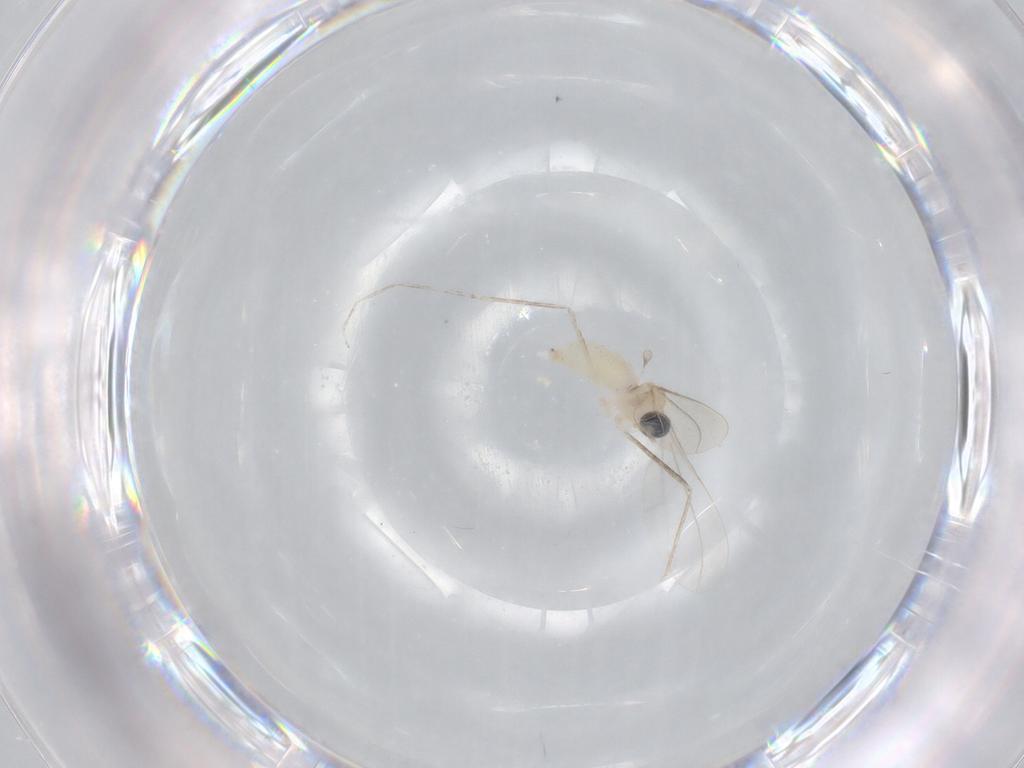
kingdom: Animalia
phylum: Arthropoda
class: Insecta
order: Diptera
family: Cecidomyiidae
